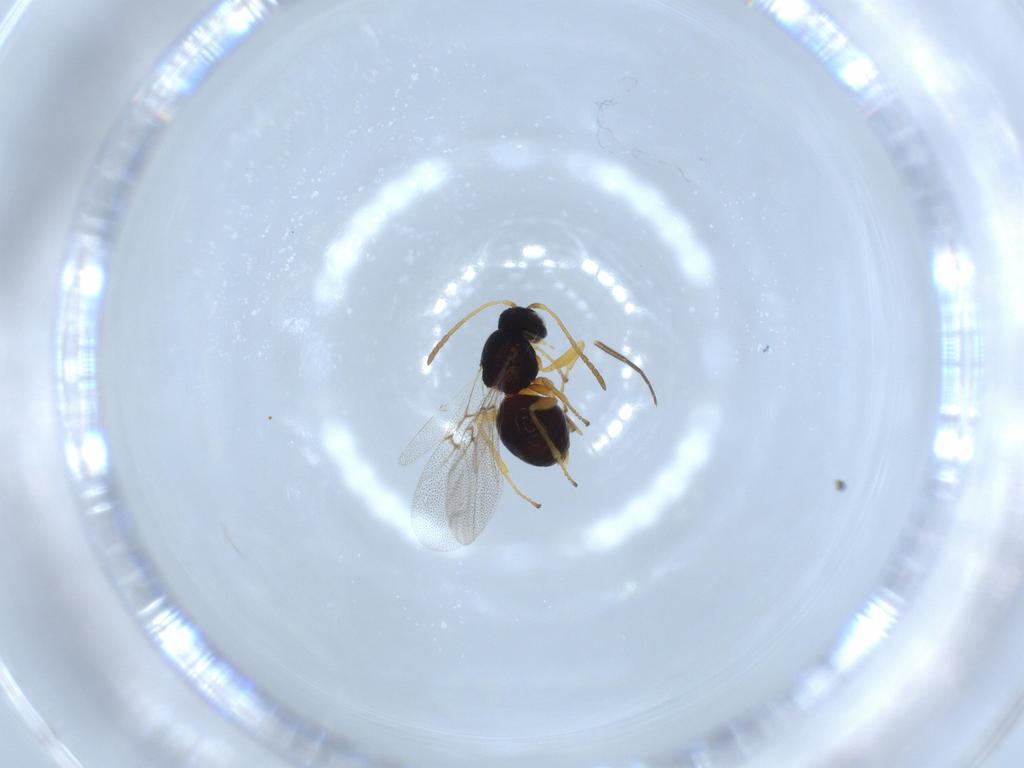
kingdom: Animalia
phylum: Arthropoda
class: Insecta
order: Hymenoptera
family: Cynipidae
